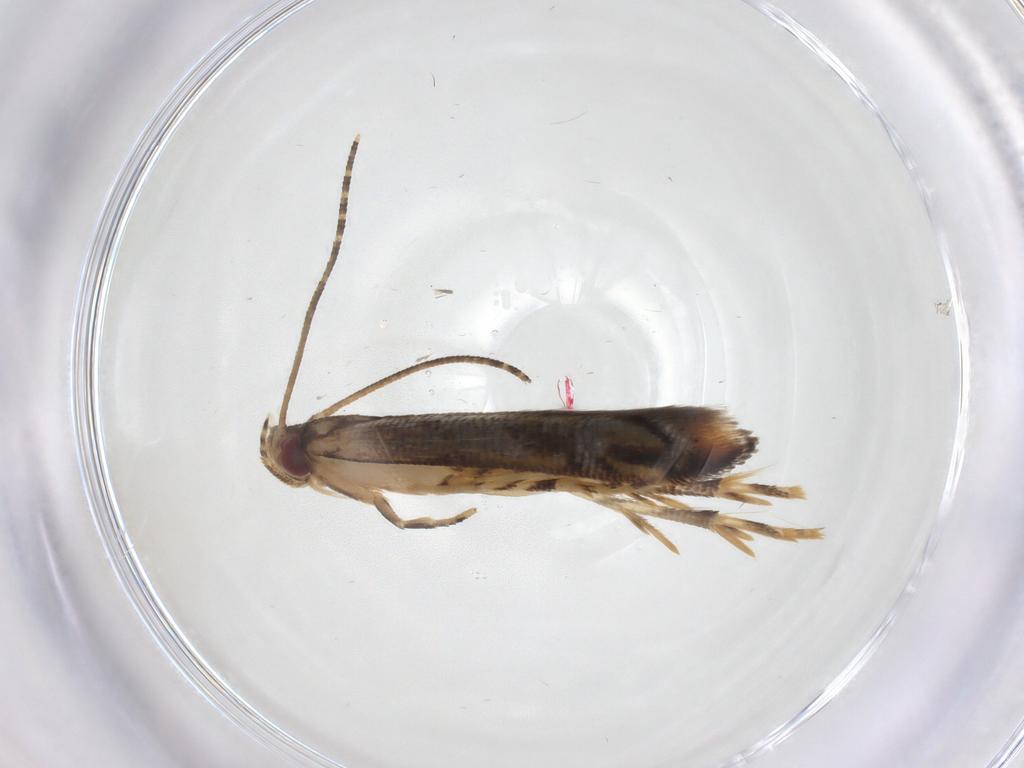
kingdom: Animalia
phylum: Arthropoda
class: Insecta
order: Lepidoptera
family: Erebidae
